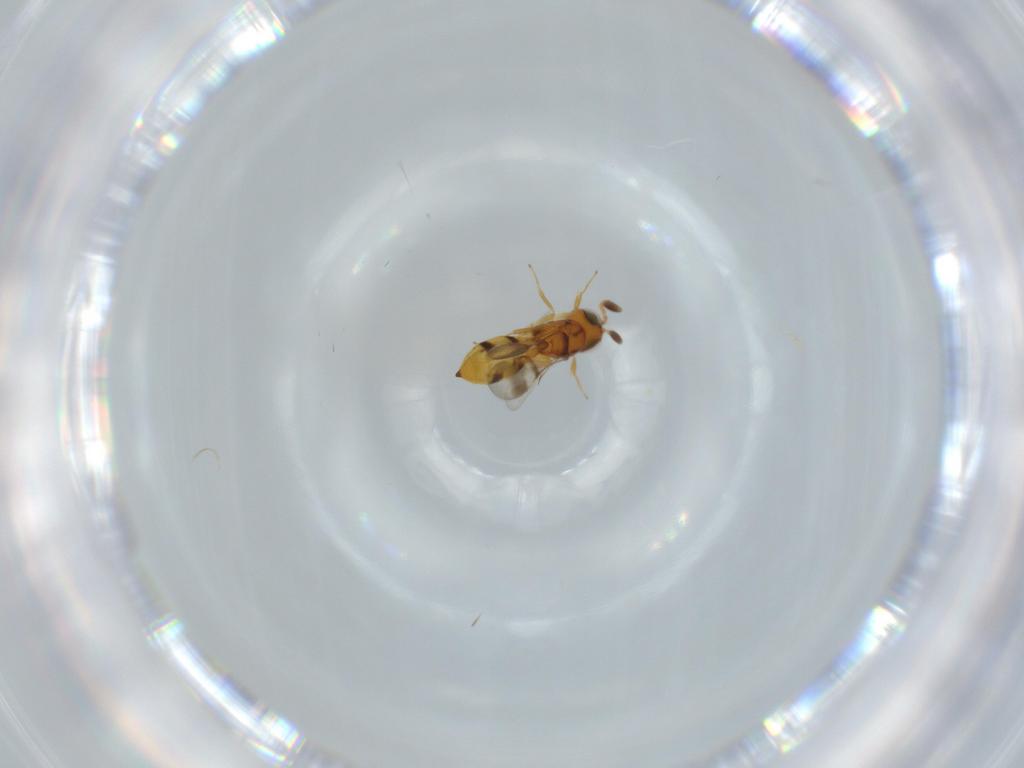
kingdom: Animalia
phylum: Arthropoda
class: Insecta
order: Hymenoptera
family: Scelionidae
